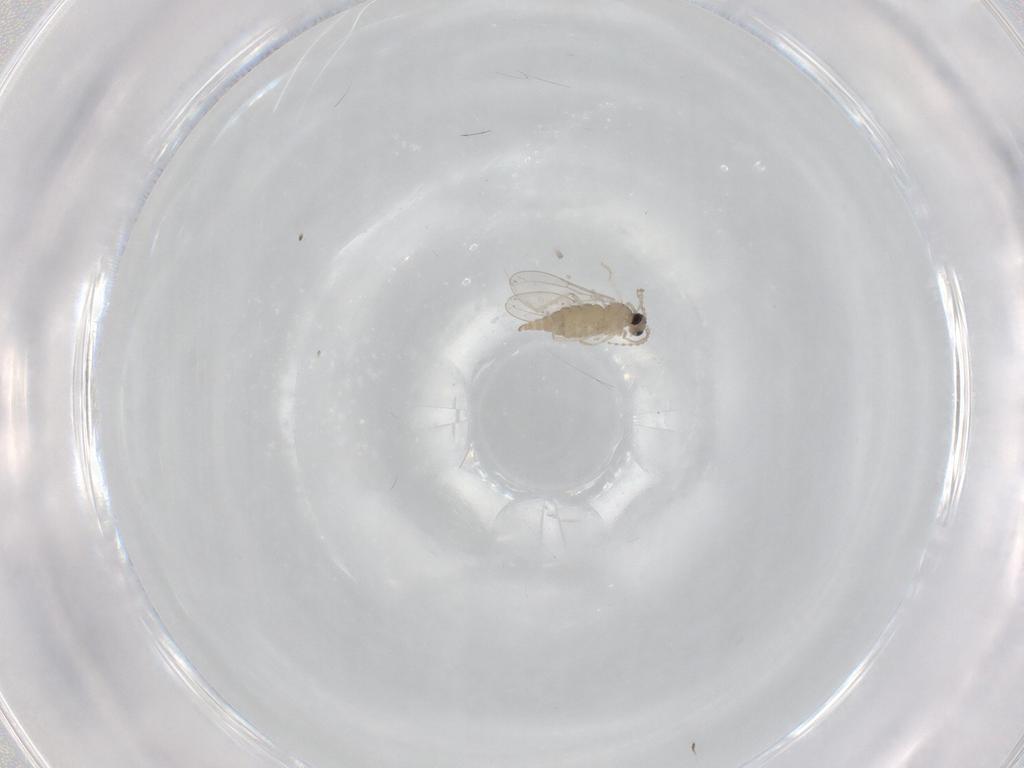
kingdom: Animalia
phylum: Arthropoda
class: Insecta
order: Diptera
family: Cecidomyiidae
